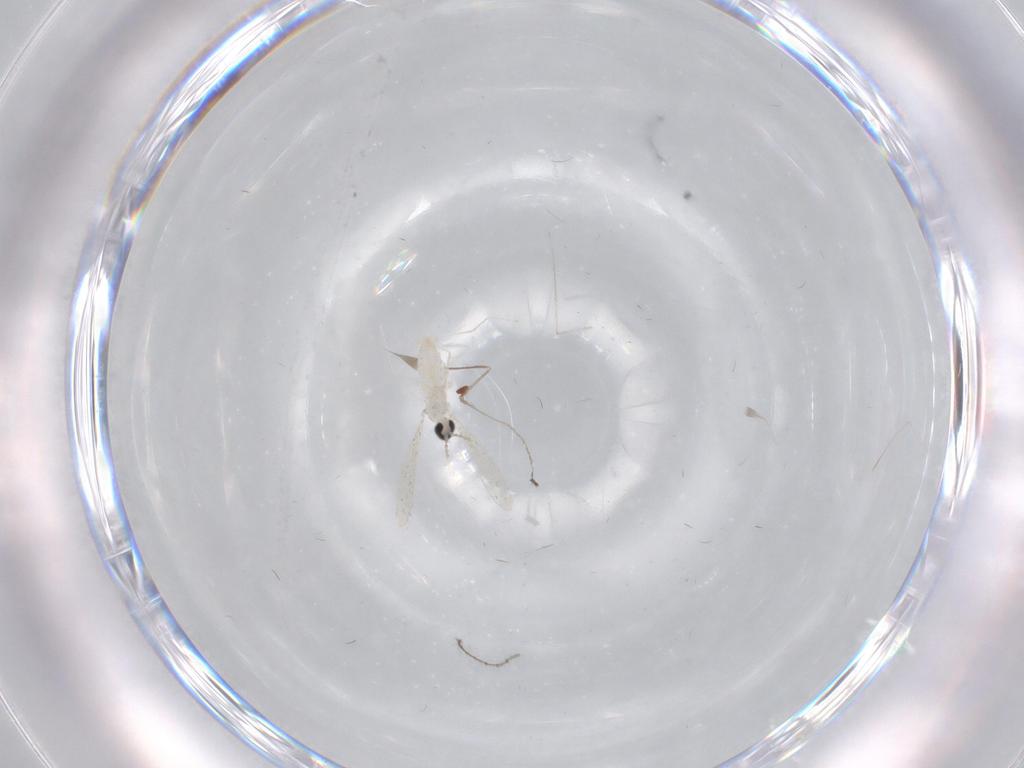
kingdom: Animalia
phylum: Arthropoda
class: Insecta
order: Diptera
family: Cecidomyiidae
